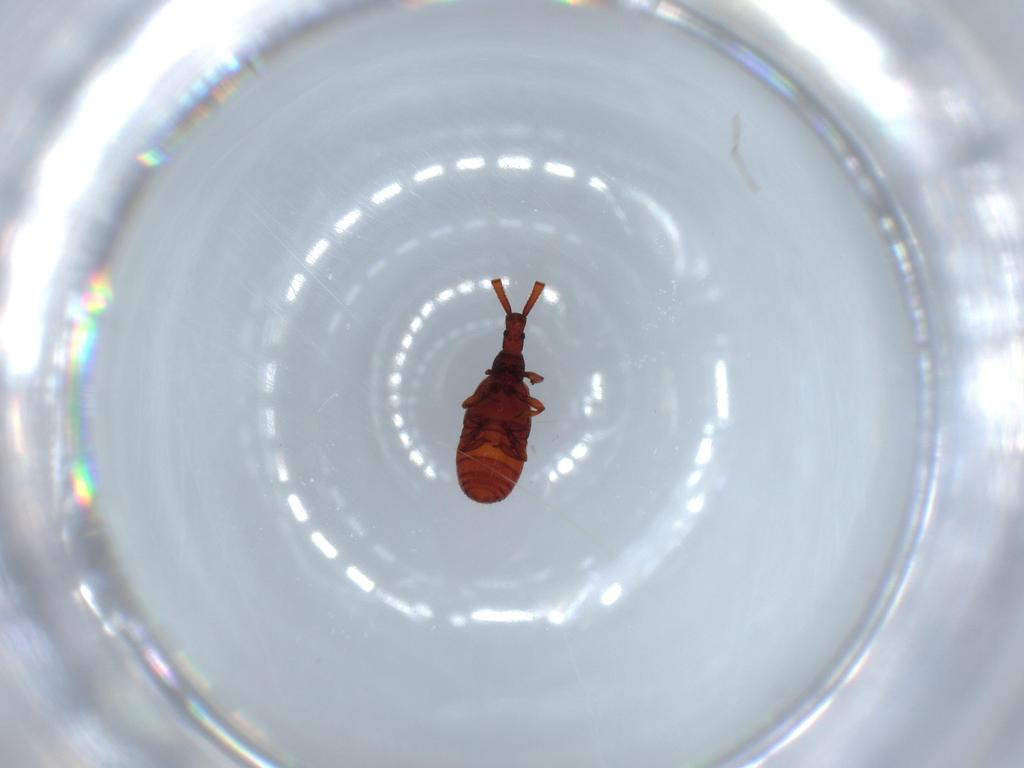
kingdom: Animalia
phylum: Arthropoda
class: Insecta
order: Coleoptera
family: Staphylinidae
